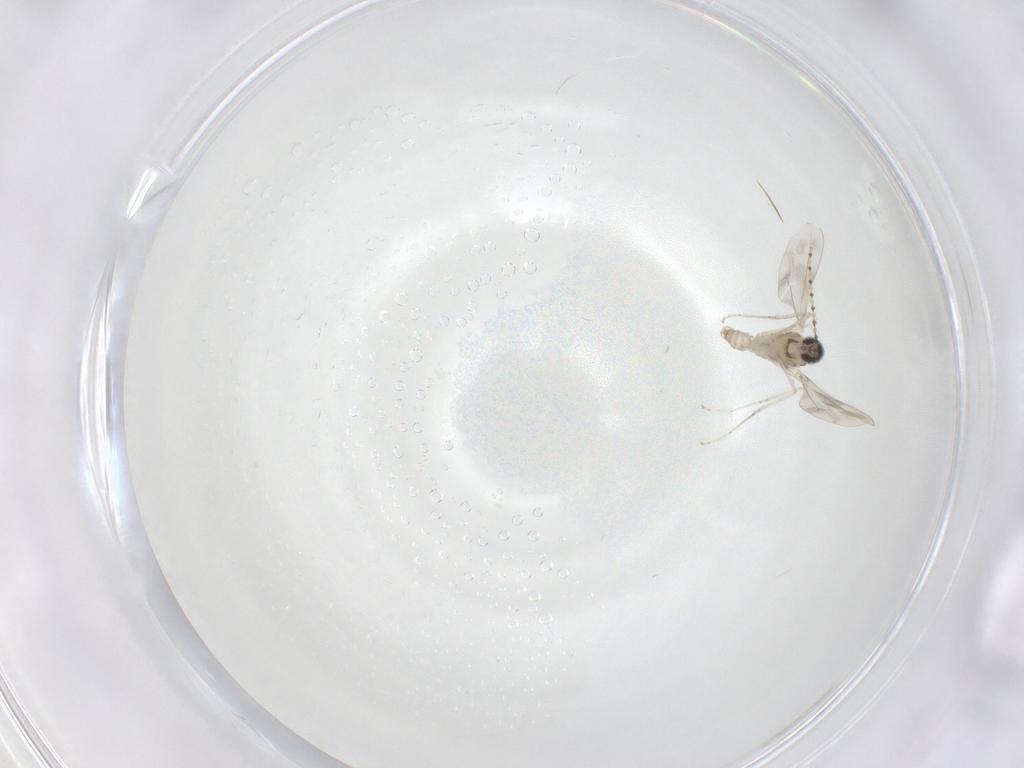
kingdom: Animalia
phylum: Arthropoda
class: Insecta
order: Diptera
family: Cecidomyiidae
